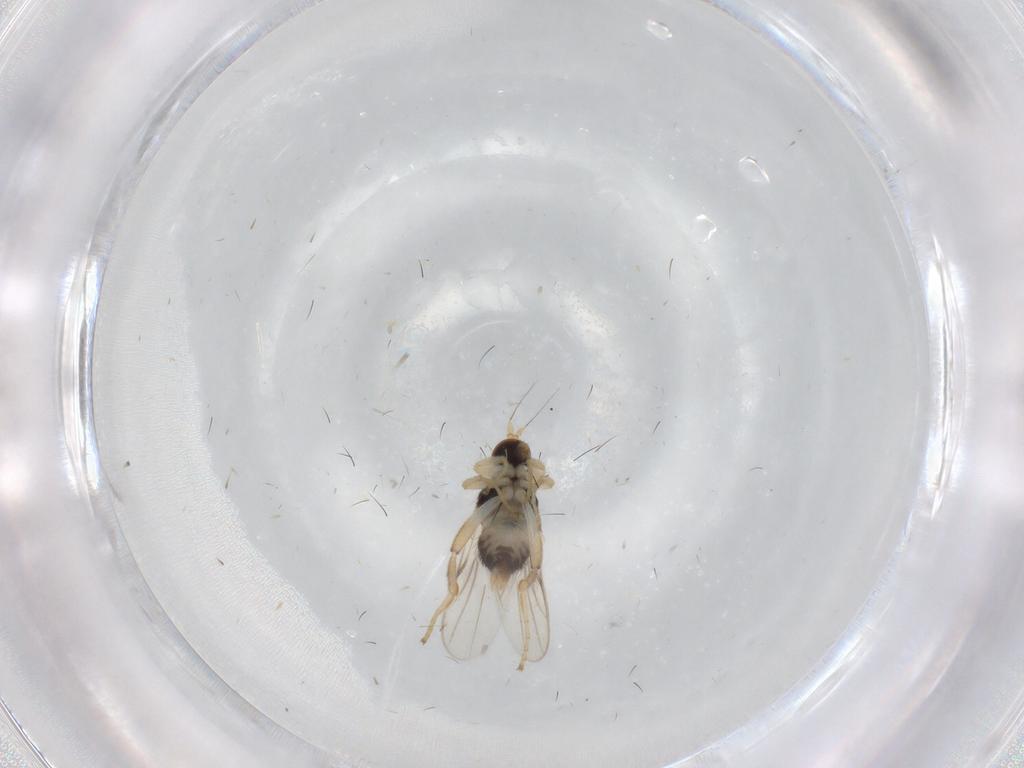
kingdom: Animalia
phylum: Arthropoda
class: Insecta
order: Diptera
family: Hybotidae
